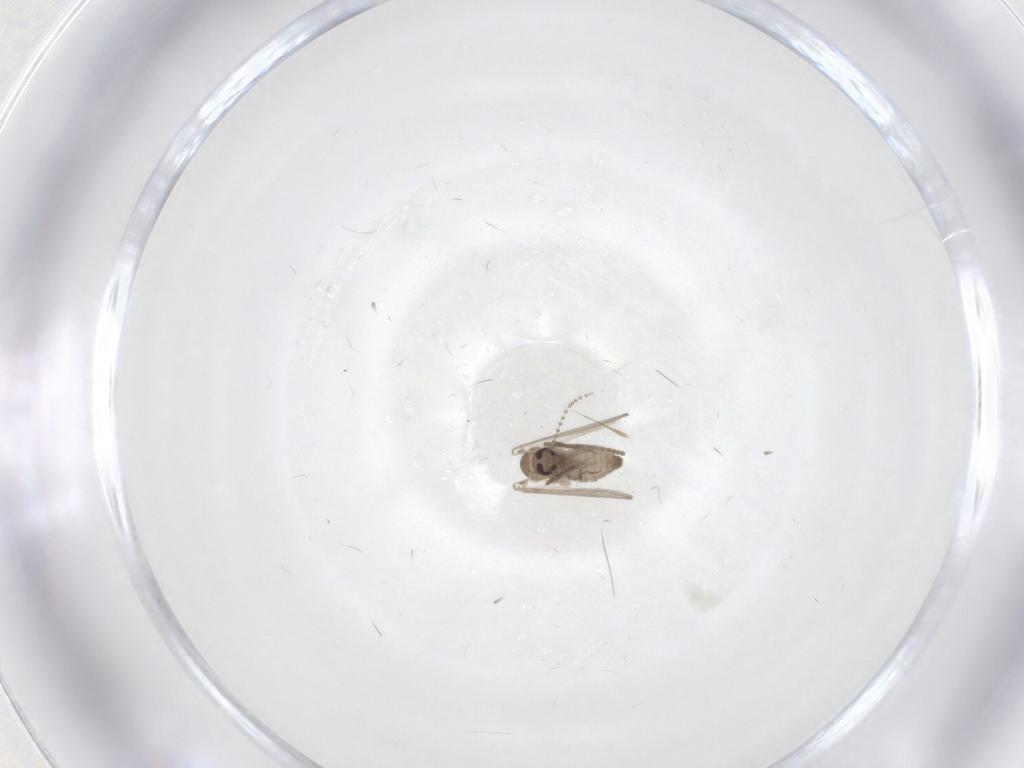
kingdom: Animalia
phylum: Arthropoda
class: Insecta
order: Diptera
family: Psychodidae
